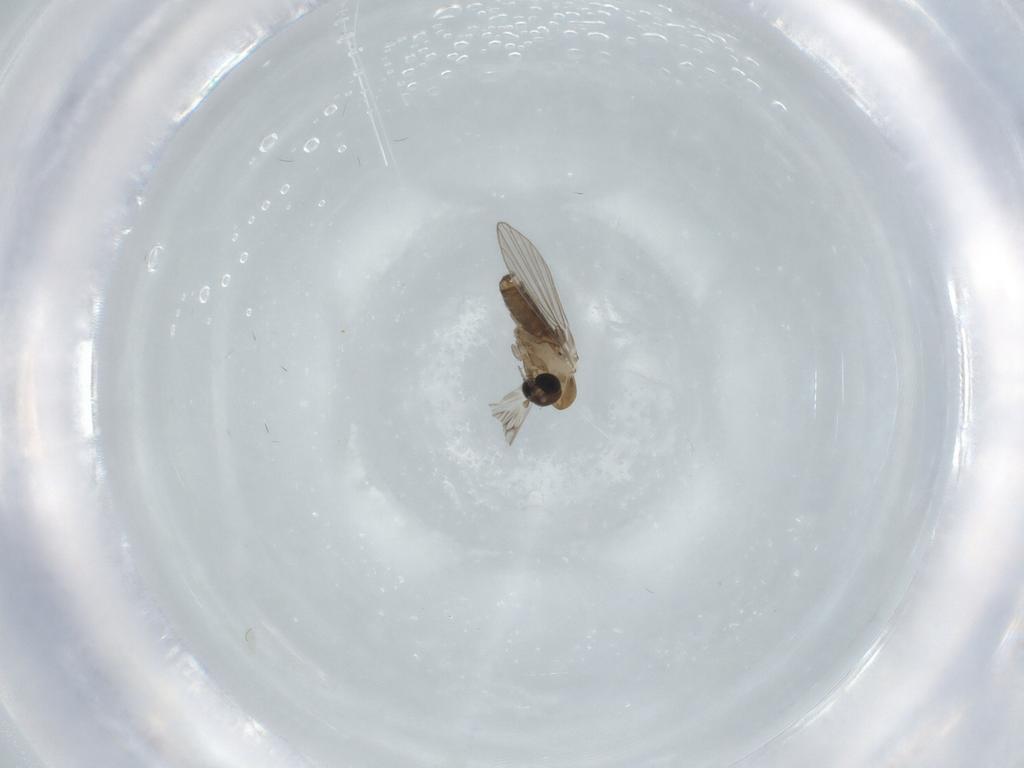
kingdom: Animalia
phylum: Arthropoda
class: Insecta
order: Diptera
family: Psychodidae
